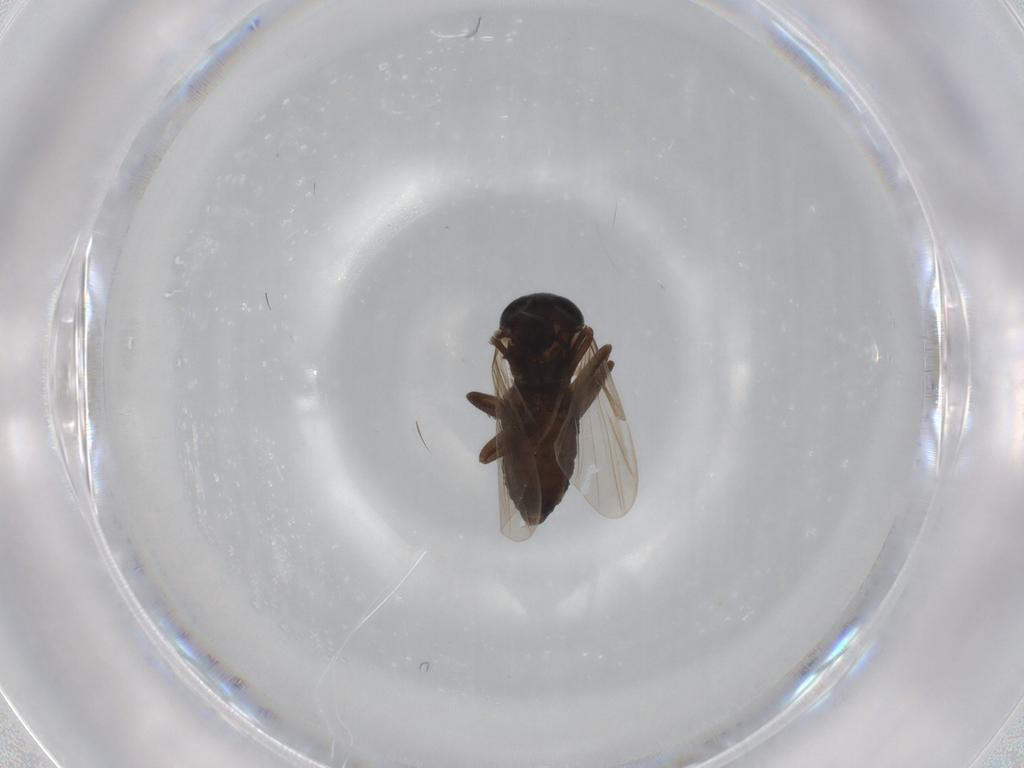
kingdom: Animalia
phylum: Arthropoda
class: Insecta
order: Diptera
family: Ceratopogonidae
